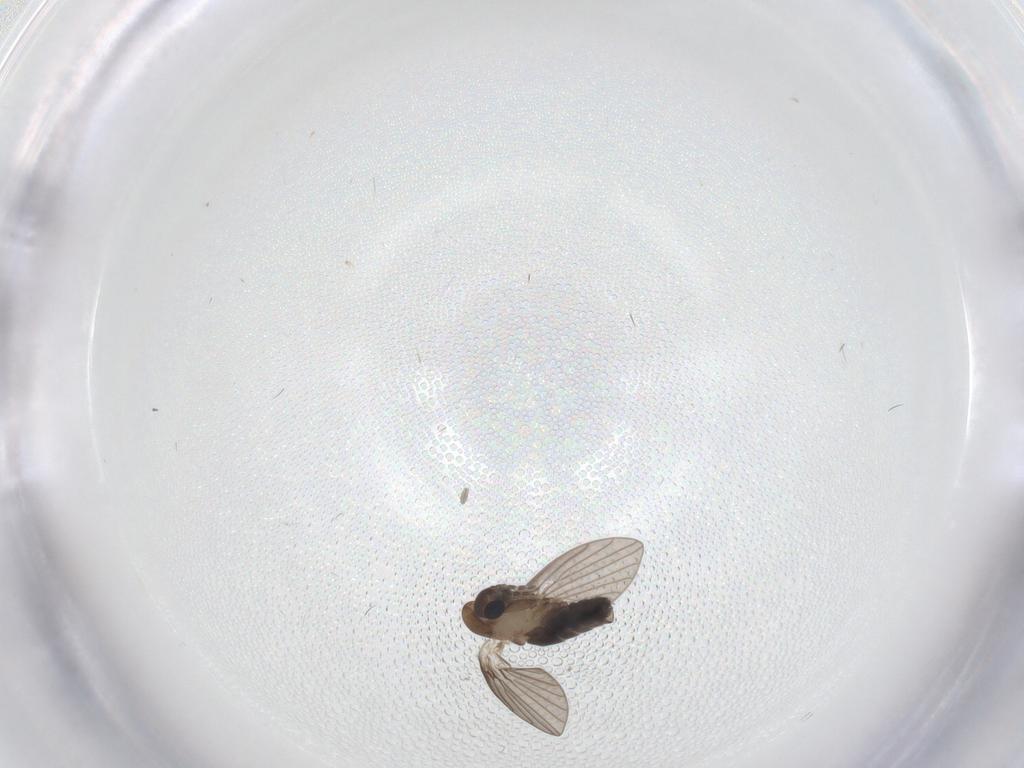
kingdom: Animalia
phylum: Arthropoda
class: Insecta
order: Diptera
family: Psychodidae
